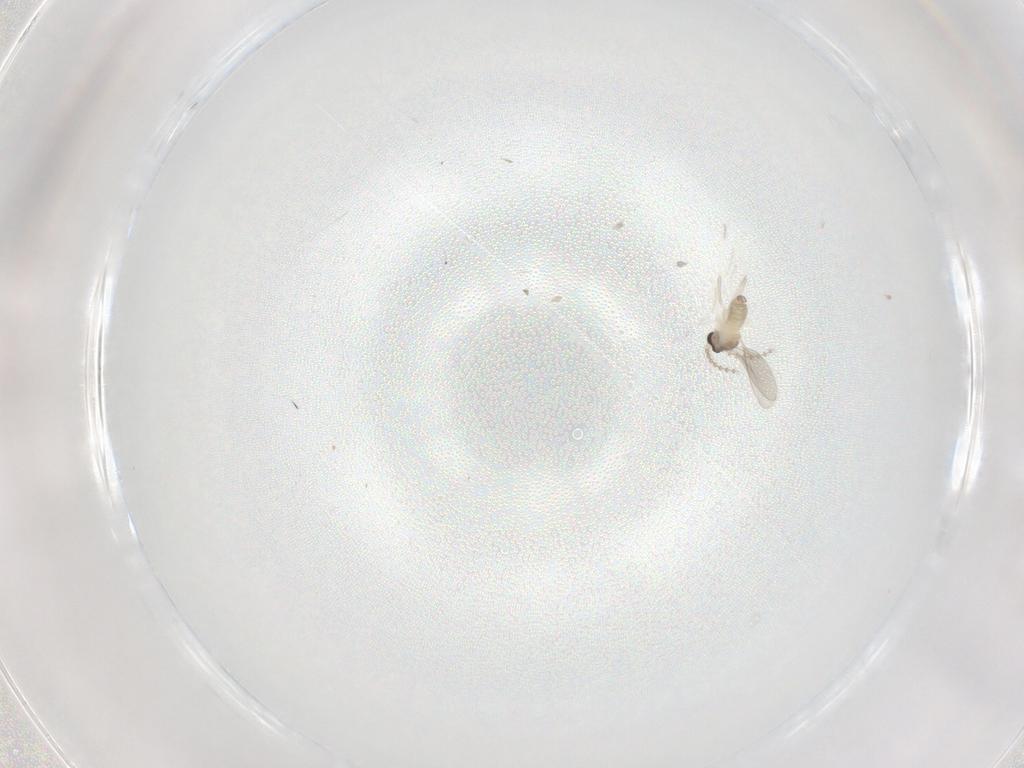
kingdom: Animalia
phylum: Arthropoda
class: Insecta
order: Diptera
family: Cecidomyiidae
